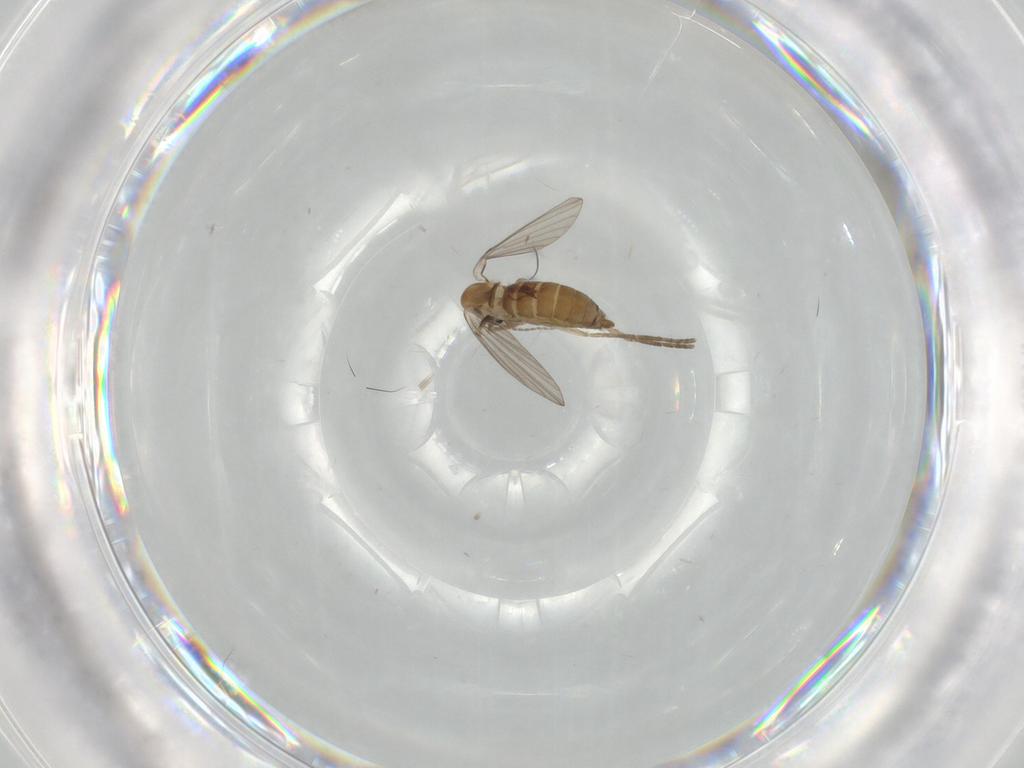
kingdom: Animalia
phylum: Arthropoda
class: Insecta
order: Diptera
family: Psychodidae
